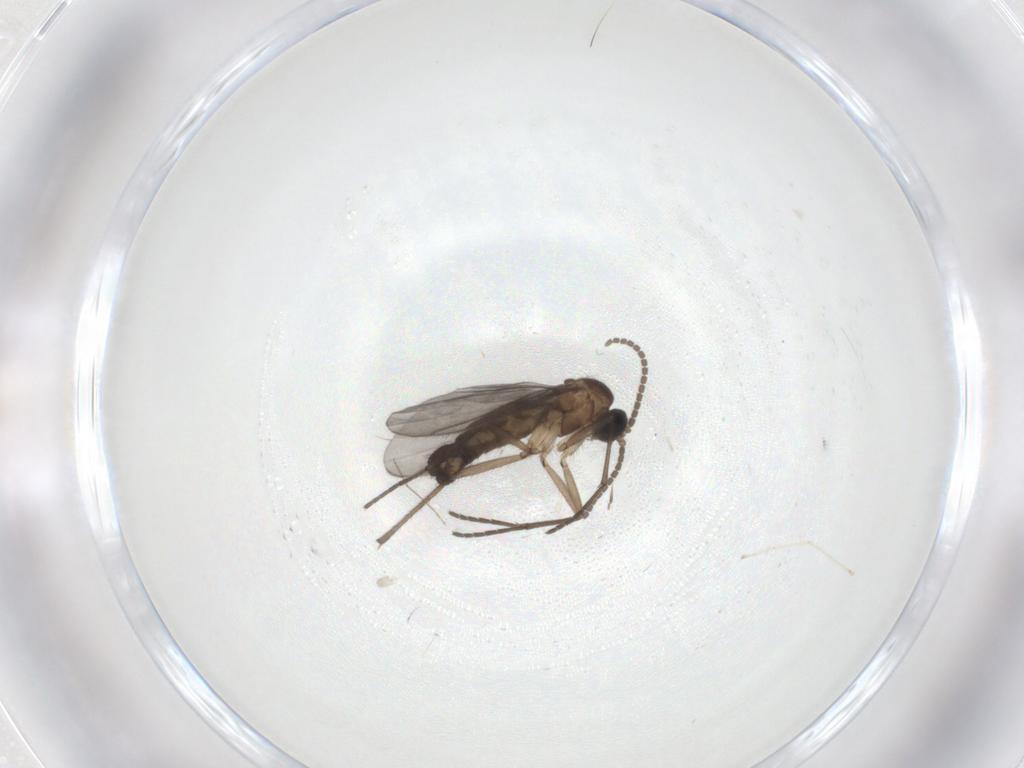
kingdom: Animalia
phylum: Arthropoda
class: Insecta
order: Diptera
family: Sciaridae
